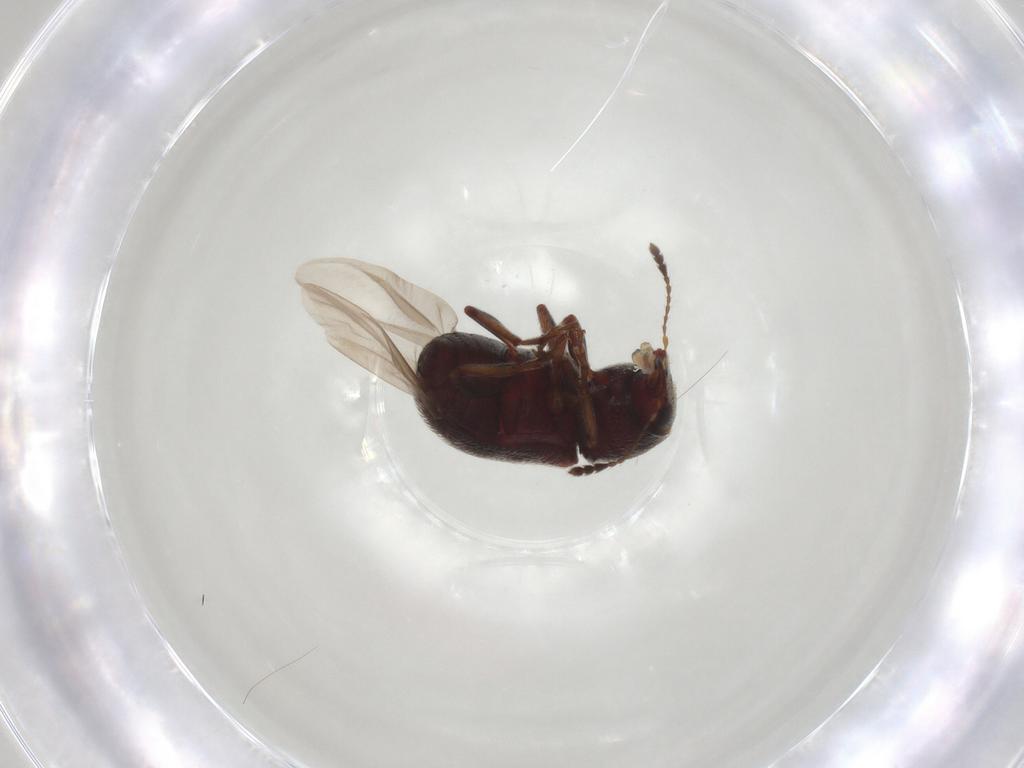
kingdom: Animalia
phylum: Arthropoda
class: Insecta
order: Coleoptera
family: Anthribidae
